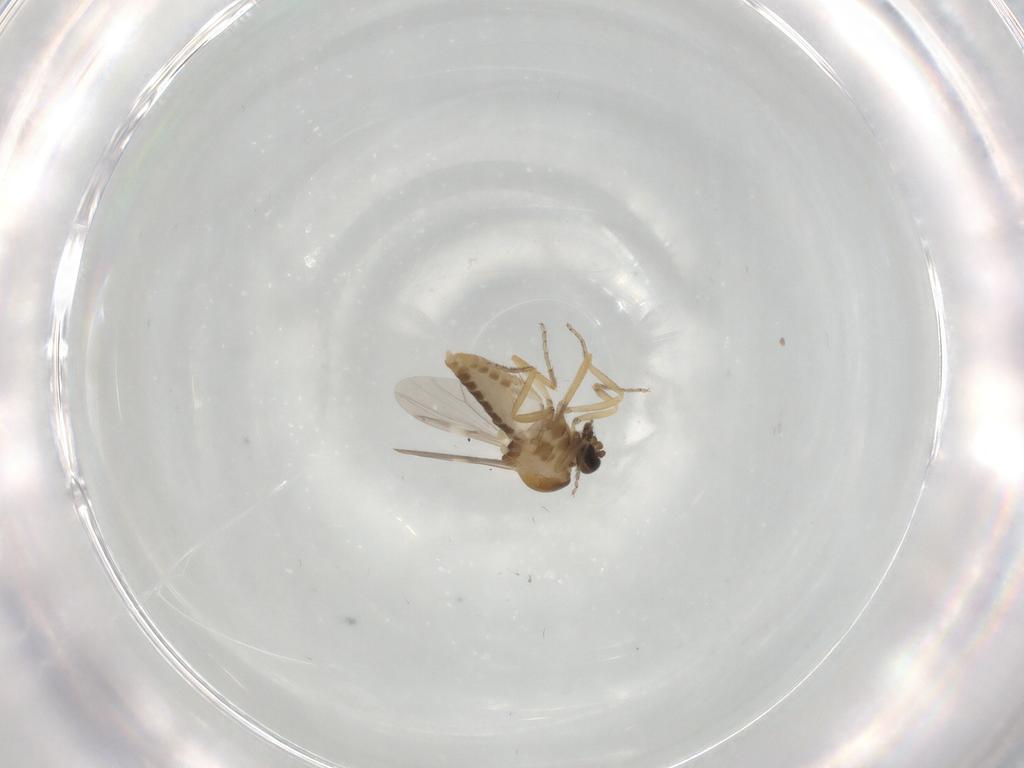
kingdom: Animalia
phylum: Arthropoda
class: Insecta
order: Diptera
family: Ceratopogonidae
